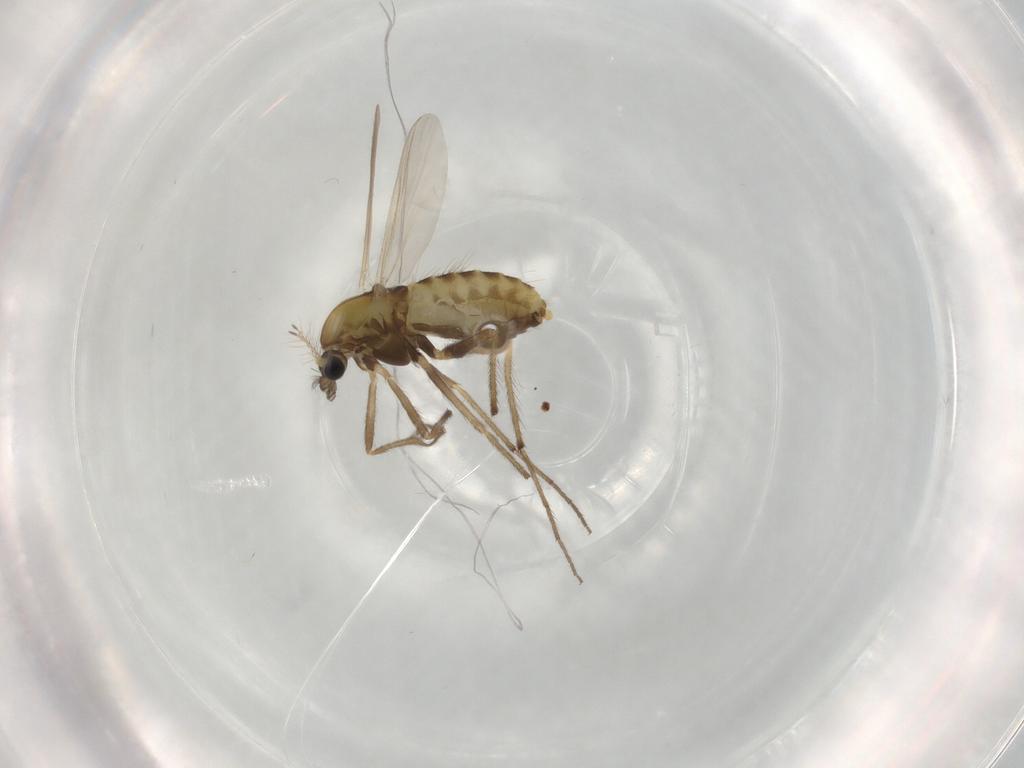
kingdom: Animalia
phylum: Arthropoda
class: Insecta
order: Diptera
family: Chironomidae
